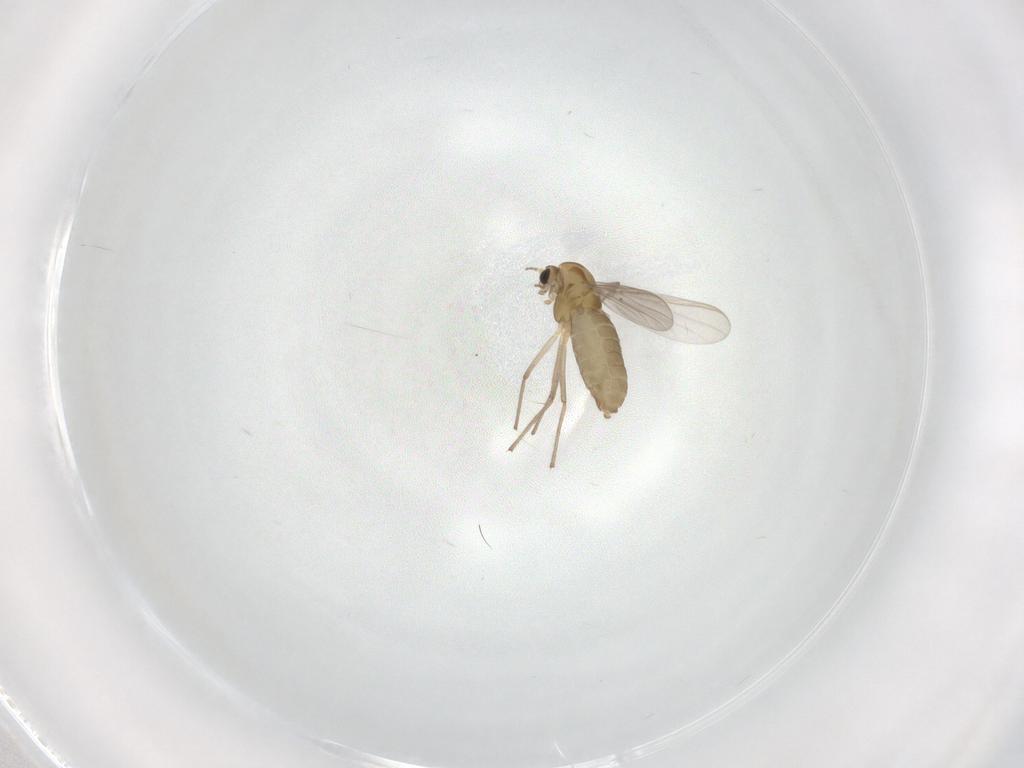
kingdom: Animalia
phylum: Arthropoda
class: Insecta
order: Diptera
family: Chironomidae
